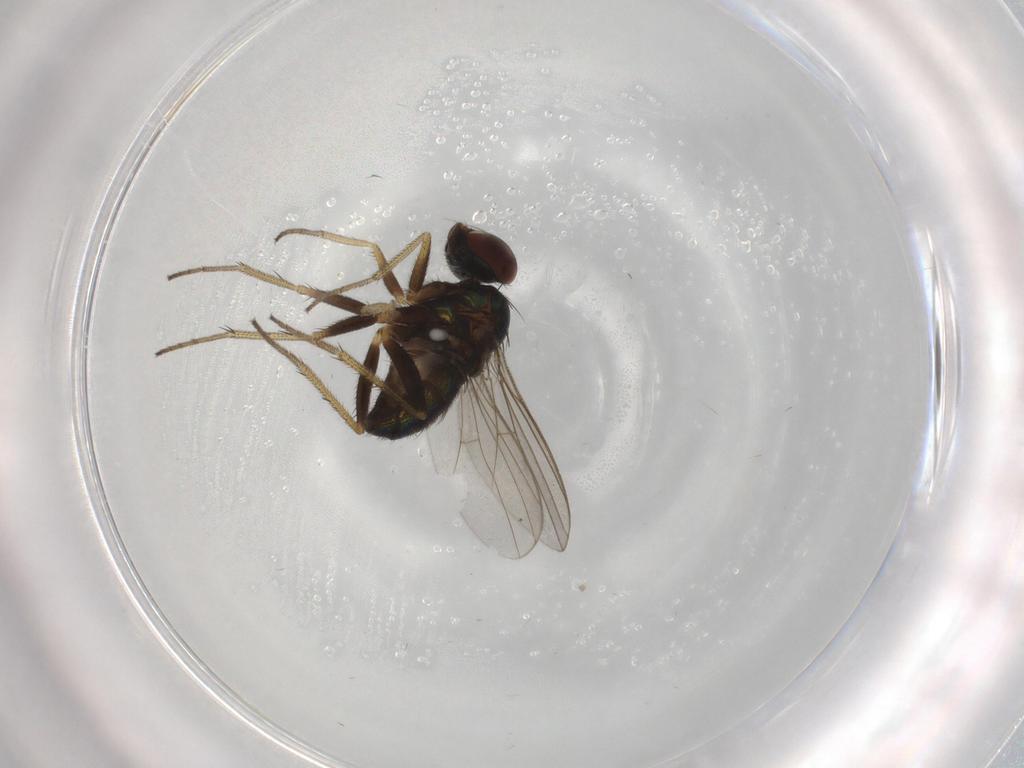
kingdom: Animalia
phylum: Arthropoda
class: Insecta
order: Diptera
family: Dolichopodidae
